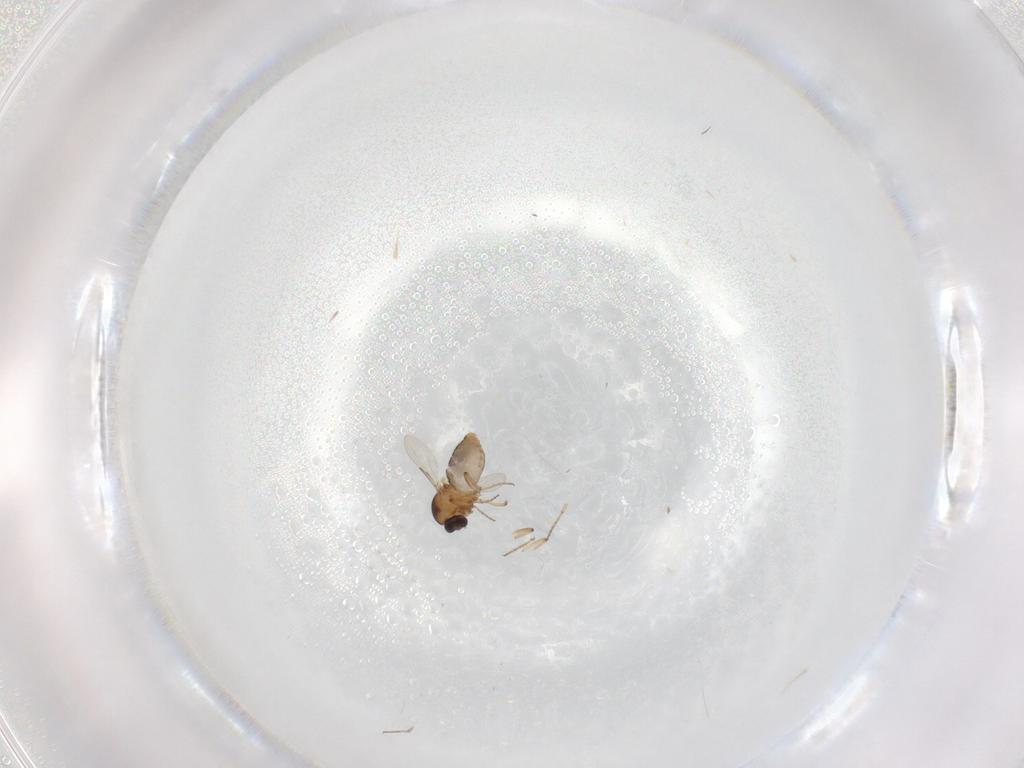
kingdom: Animalia
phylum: Arthropoda
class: Insecta
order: Diptera
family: Ceratopogonidae
